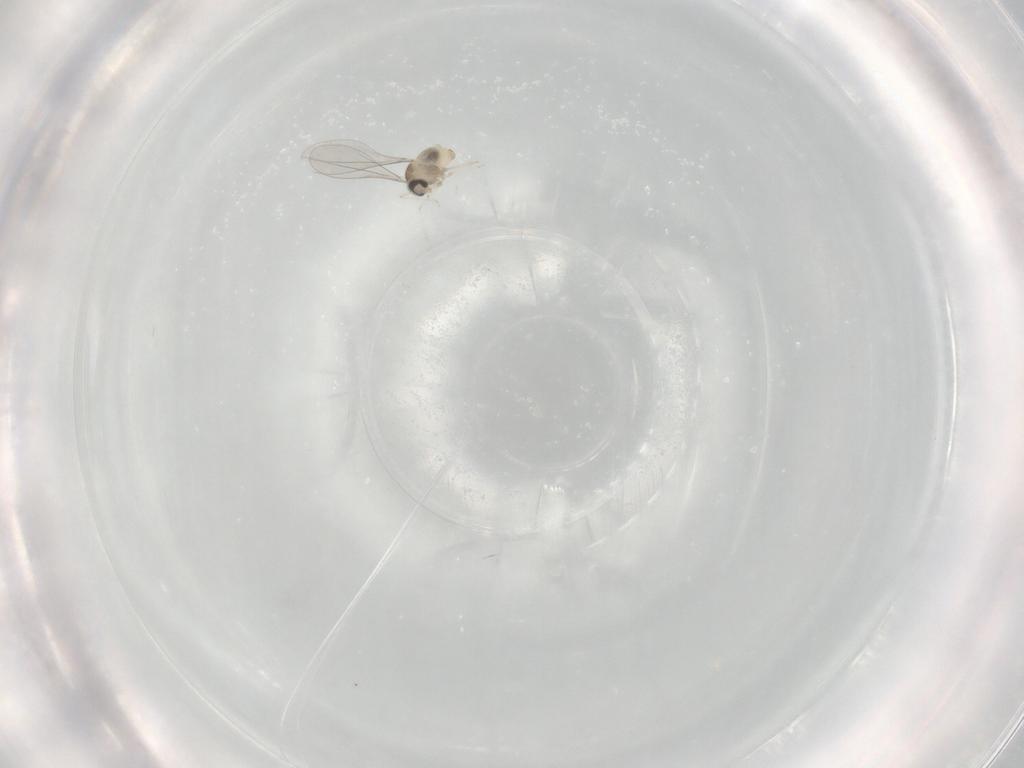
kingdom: Animalia
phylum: Arthropoda
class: Insecta
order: Diptera
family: Cecidomyiidae
